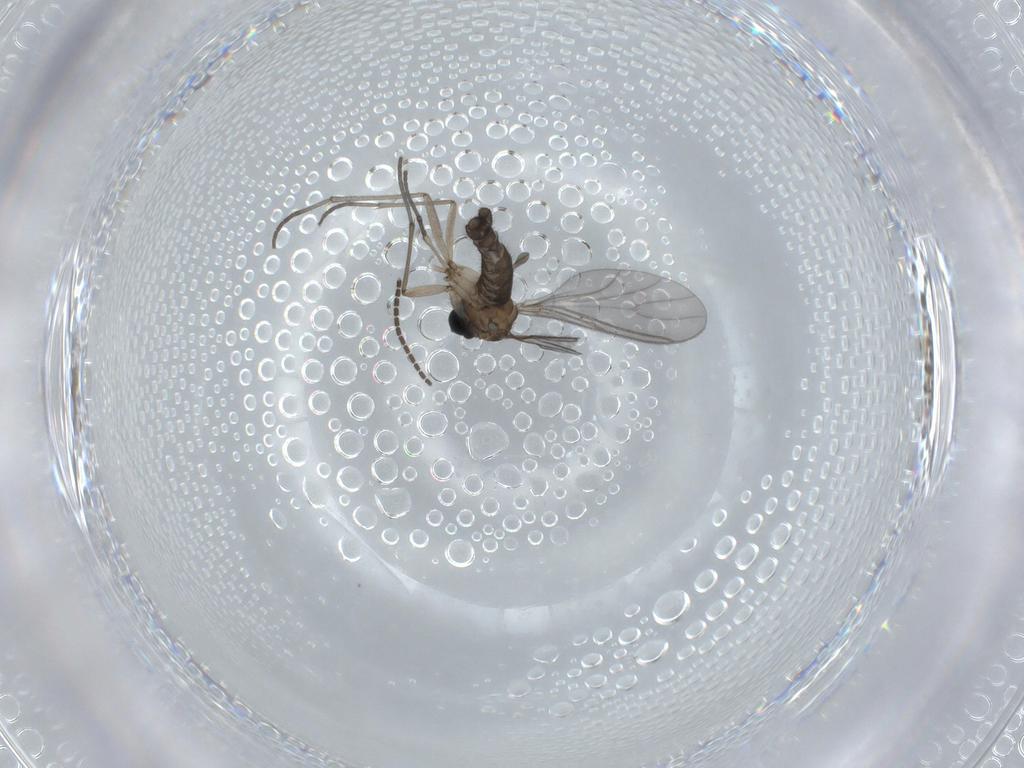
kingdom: Animalia
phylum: Arthropoda
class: Insecta
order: Diptera
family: Sciaridae
